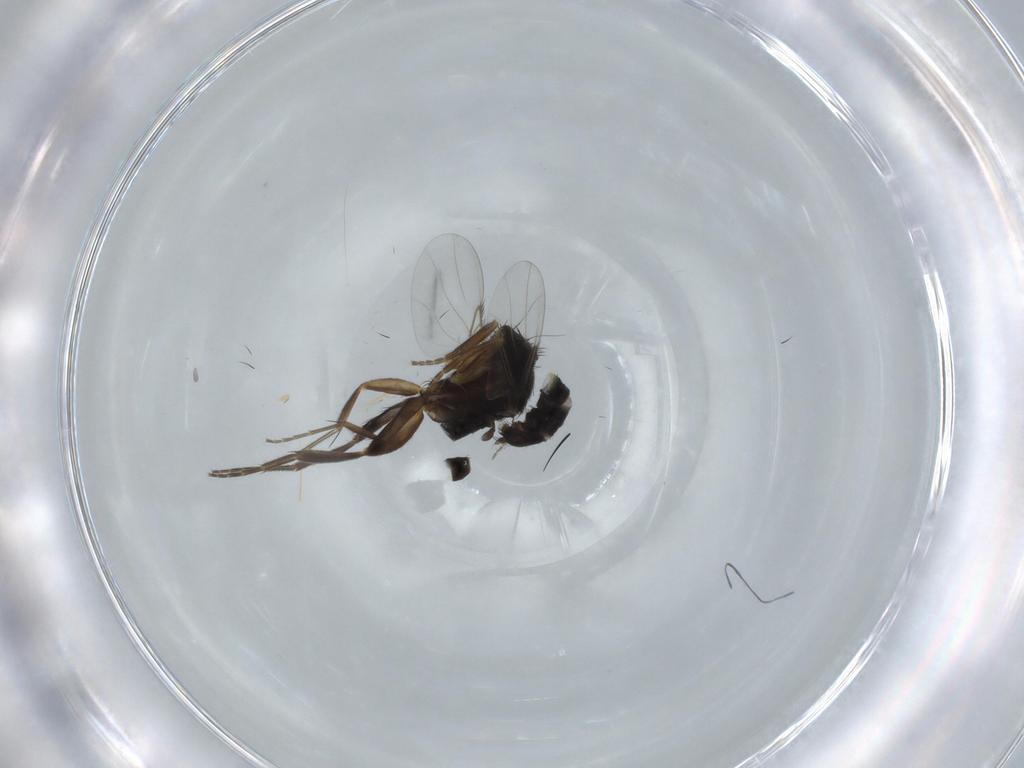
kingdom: Animalia
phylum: Arthropoda
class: Insecta
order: Diptera
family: Phoridae
